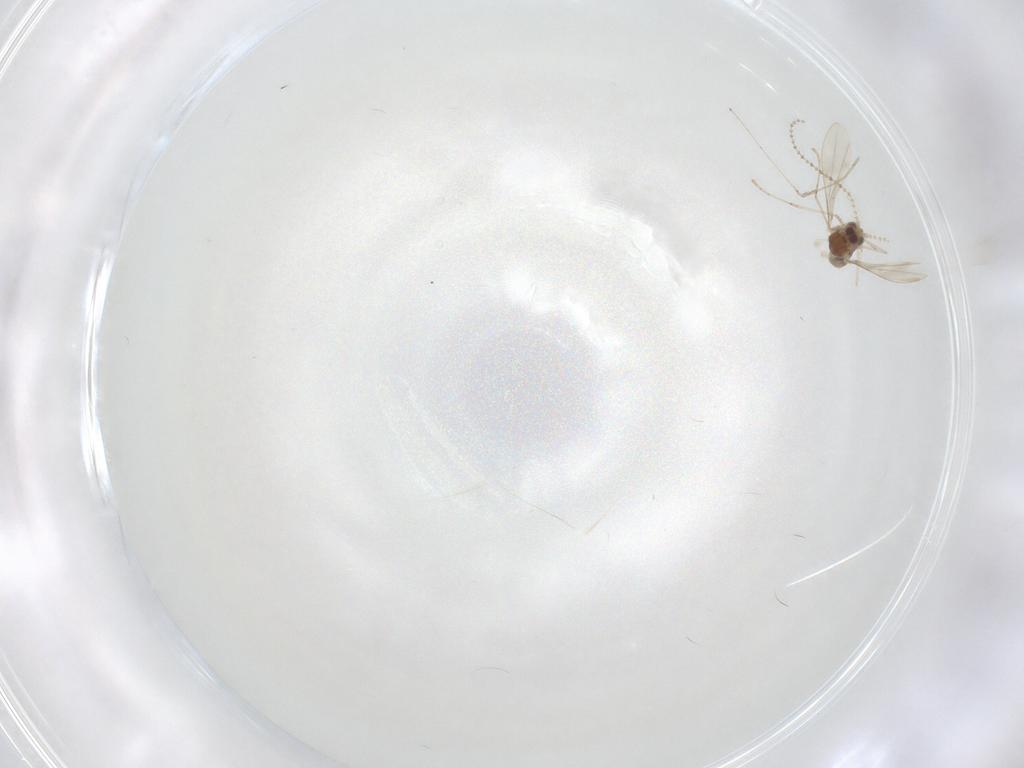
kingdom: Animalia
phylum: Arthropoda
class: Insecta
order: Diptera
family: Cecidomyiidae
